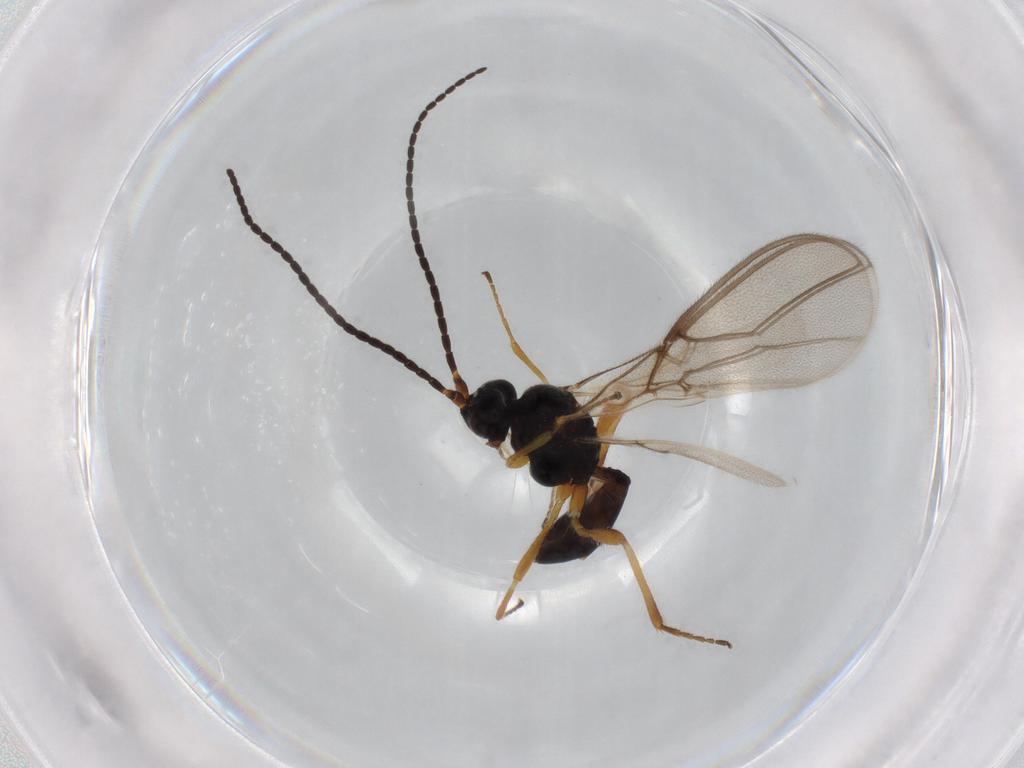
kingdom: Animalia
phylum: Arthropoda
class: Insecta
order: Hymenoptera
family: Braconidae
